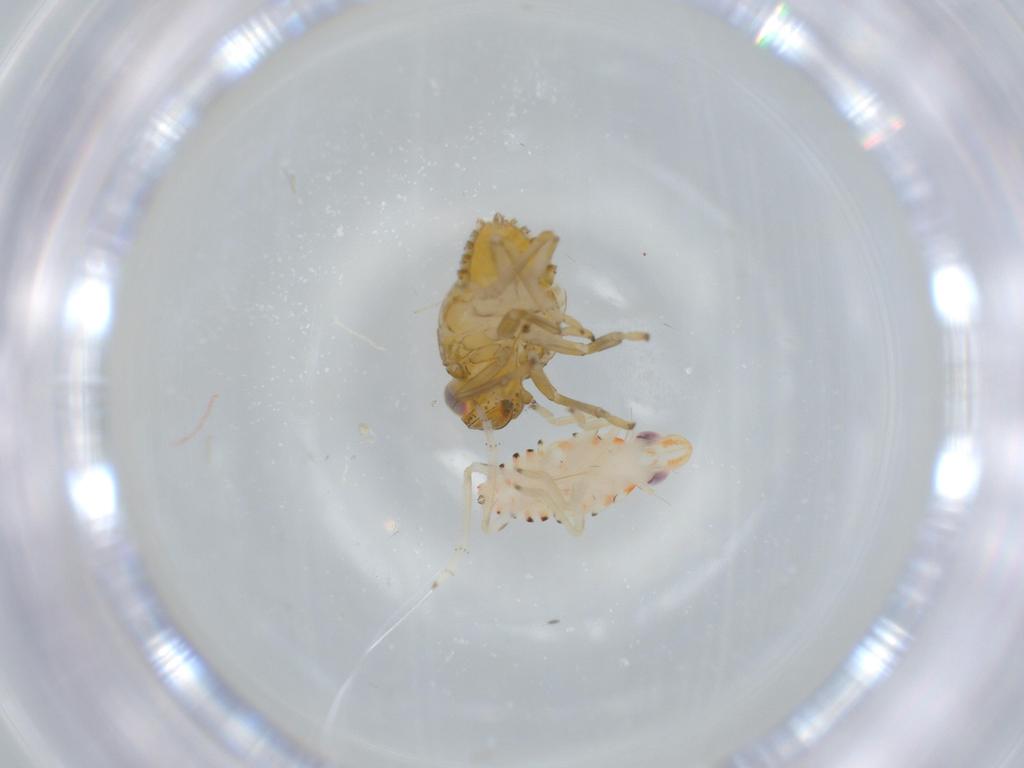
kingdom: Animalia
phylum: Arthropoda
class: Insecta
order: Hemiptera
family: Issidae
